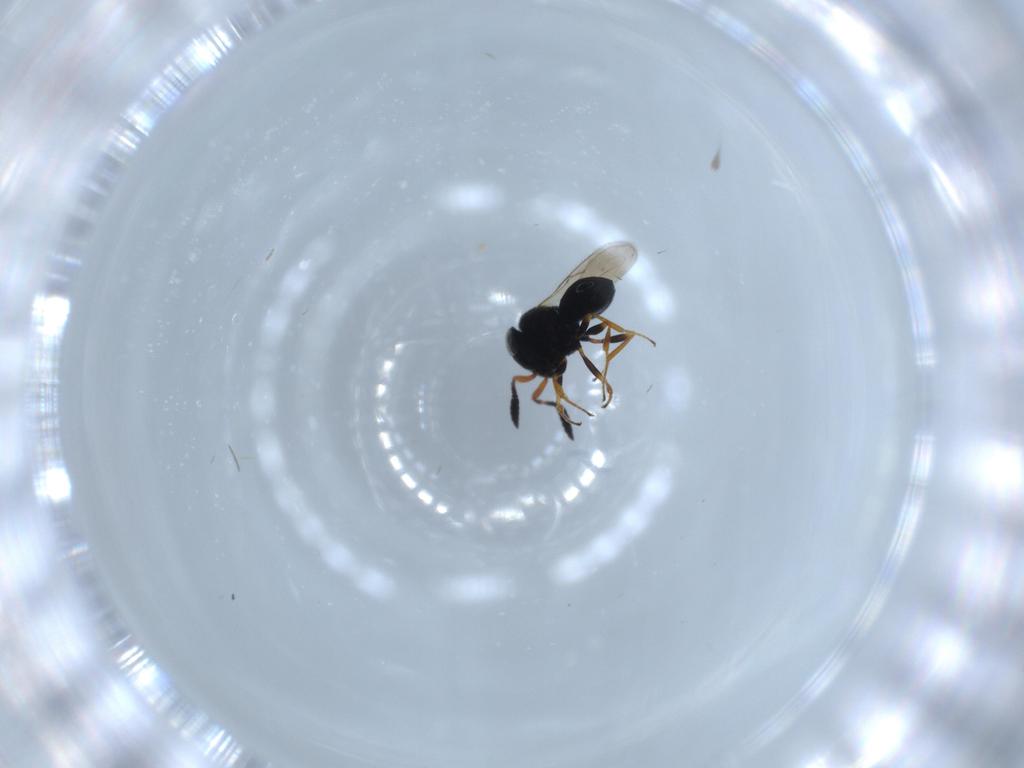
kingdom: Animalia
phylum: Arthropoda
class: Insecta
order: Hymenoptera
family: Scelionidae
